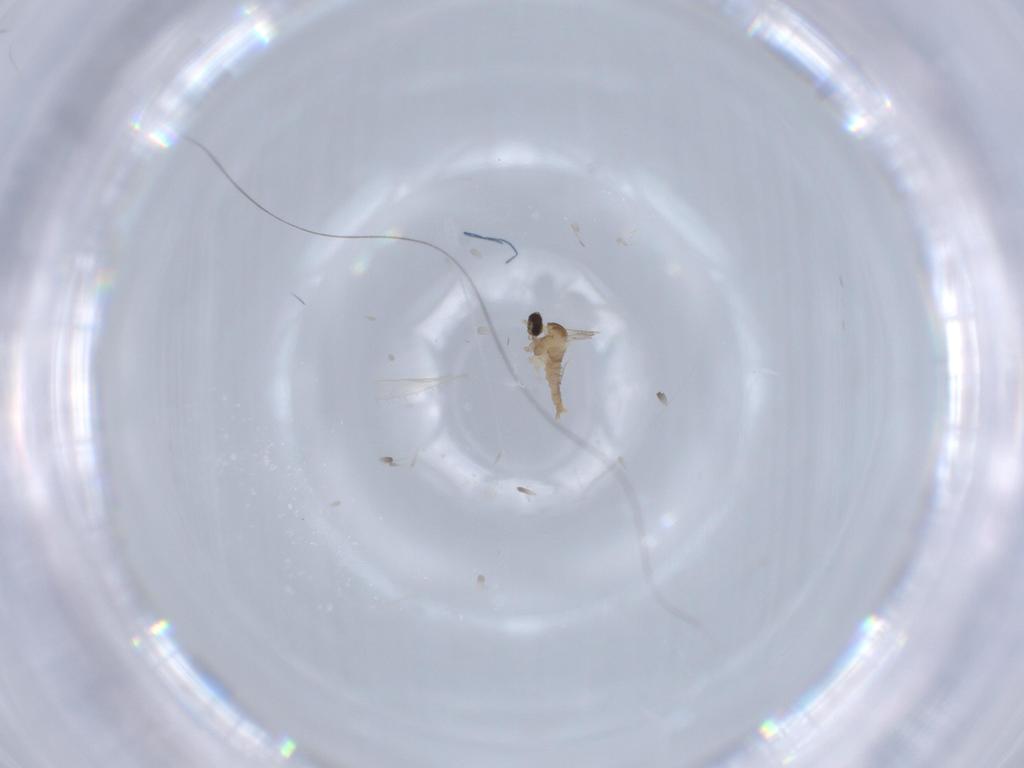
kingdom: Animalia
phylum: Arthropoda
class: Insecta
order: Diptera
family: Cecidomyiidae
